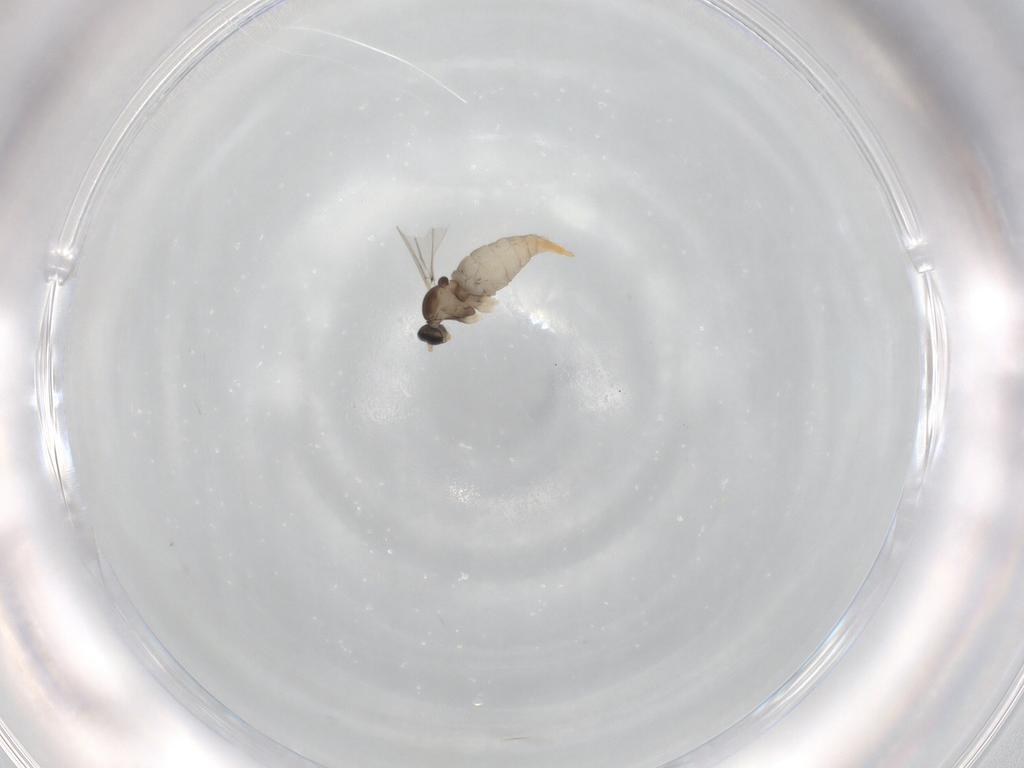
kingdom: Animalia
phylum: Arthropoda
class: Insecta
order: Diptera
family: Cecidomyiidae
